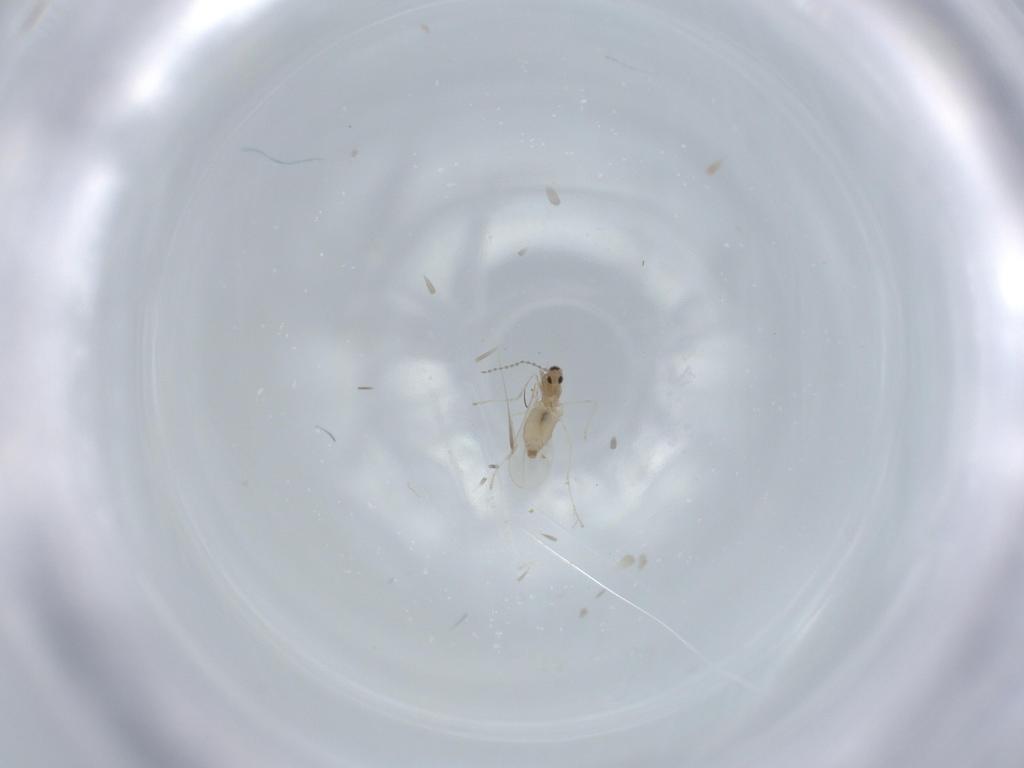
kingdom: Animalia
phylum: Arthropoda
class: Insecta
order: Diptera
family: Cecidomyiidae
